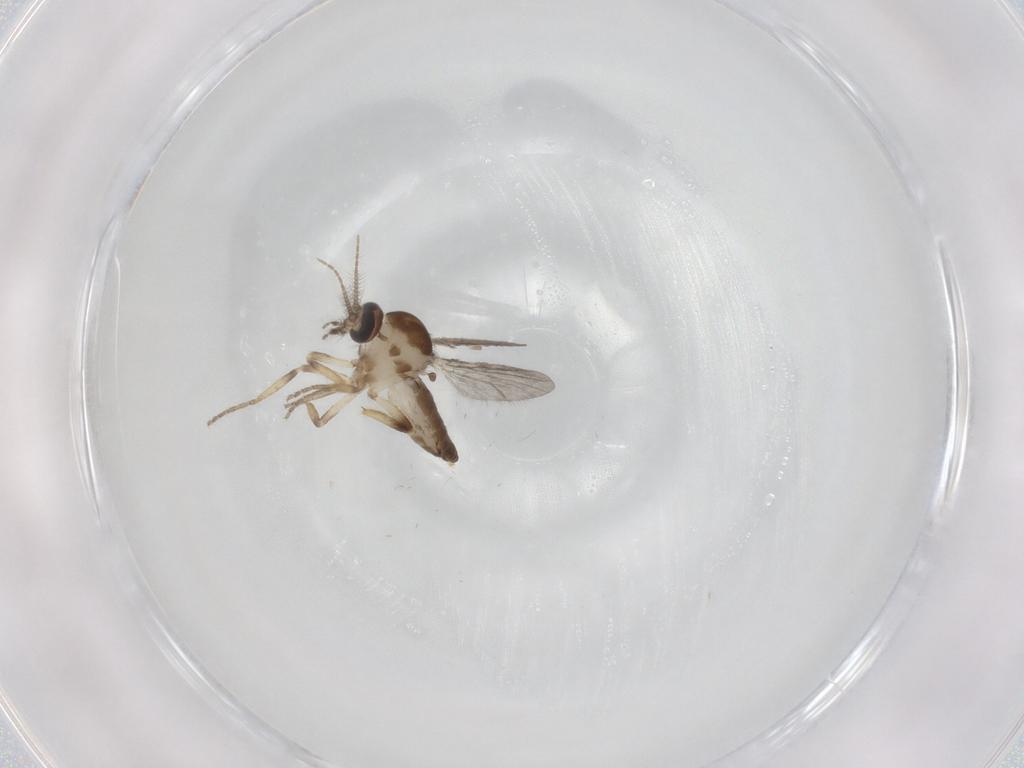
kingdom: Animalia
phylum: Arthropoda
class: Insecta
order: Diptera
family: Ceratopogonidae
